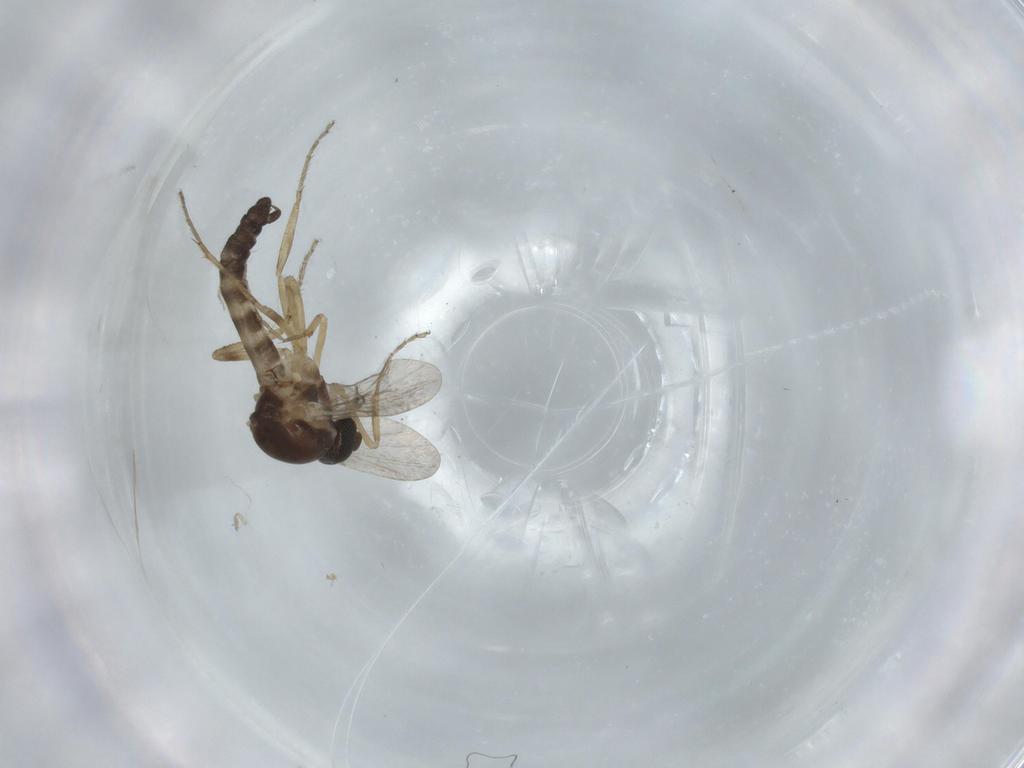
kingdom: Animalia
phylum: Arthropoda
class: Insecta
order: Diptera
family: Ceratopogonidae
